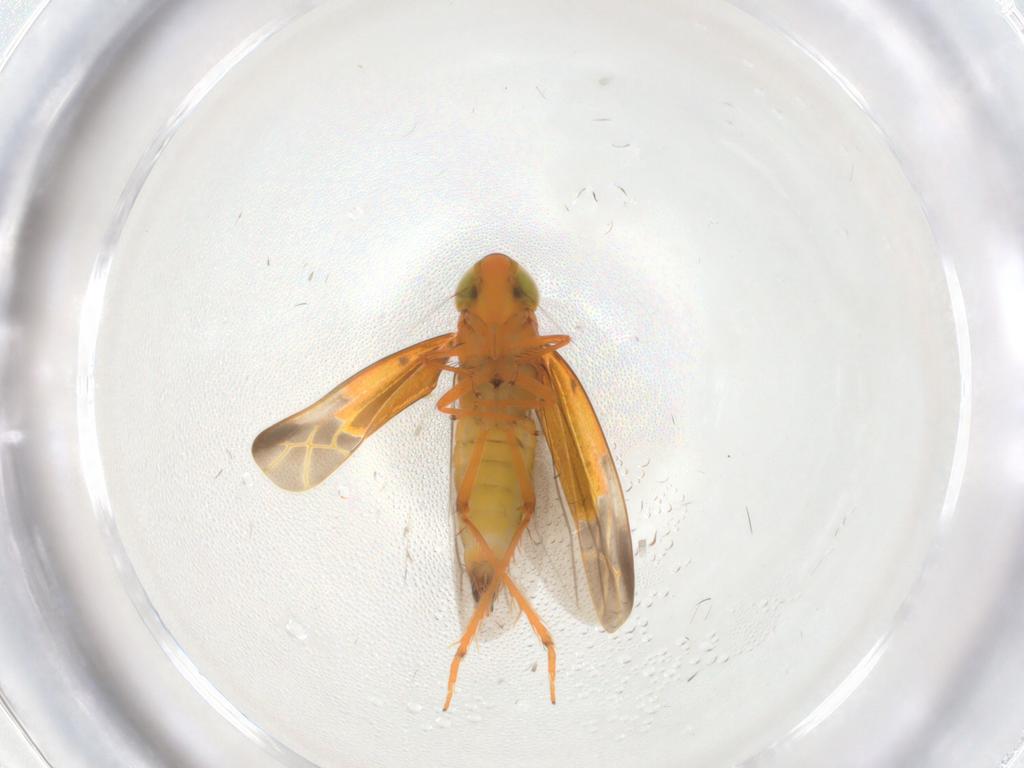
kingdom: Animalia
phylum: Arthropoda
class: Insecta
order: Hemiptera
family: Cicadellidae
